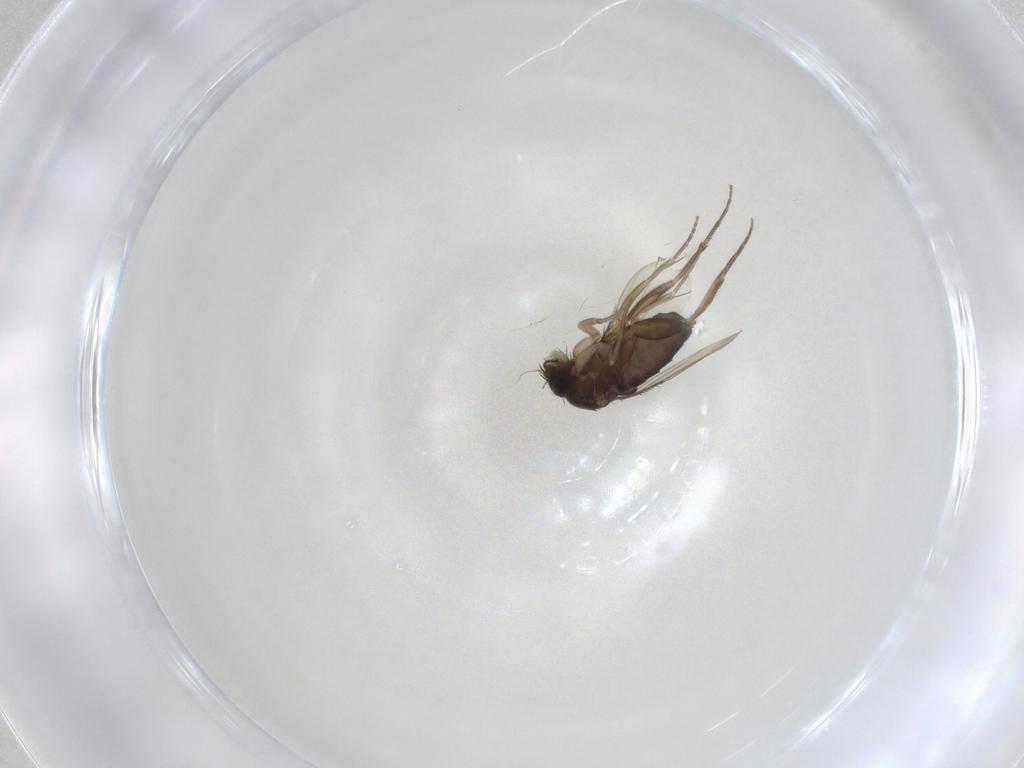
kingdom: Animalia
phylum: Arthropoda
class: Insecta
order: Diptera
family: Phoridae
